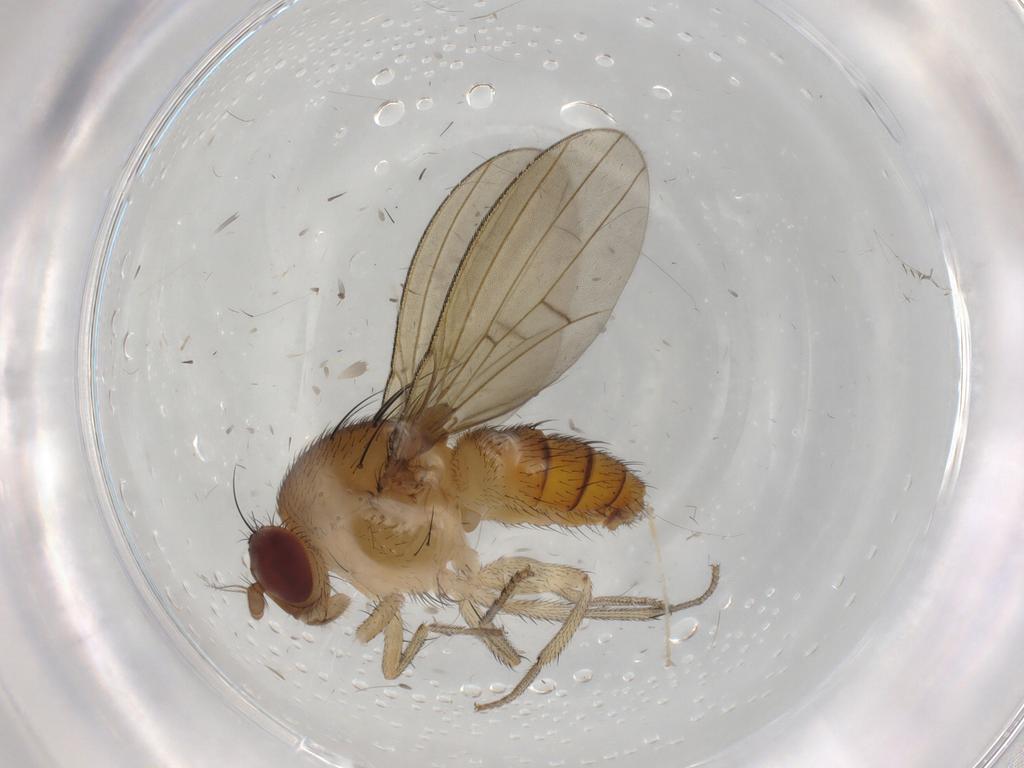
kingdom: Animalia
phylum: Arthropoda
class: Insecta
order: Diptera
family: Lauxaniidae
